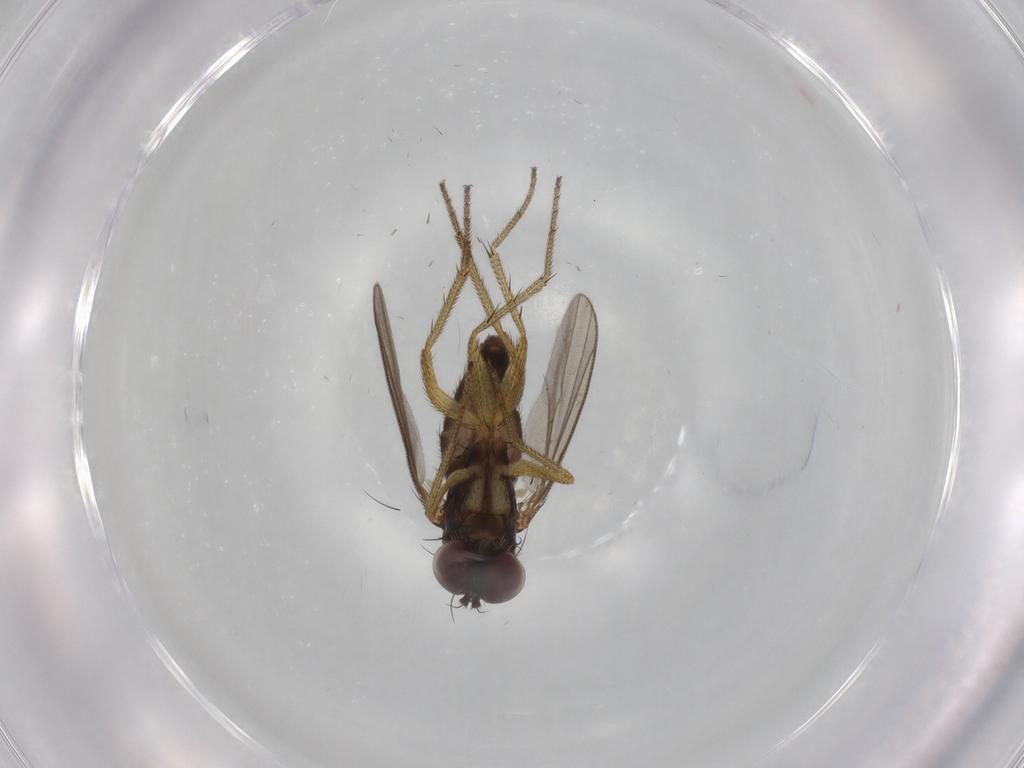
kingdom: Animalia
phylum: Arthropoda
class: Insecta
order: Diptera
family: Dolichopodidae
